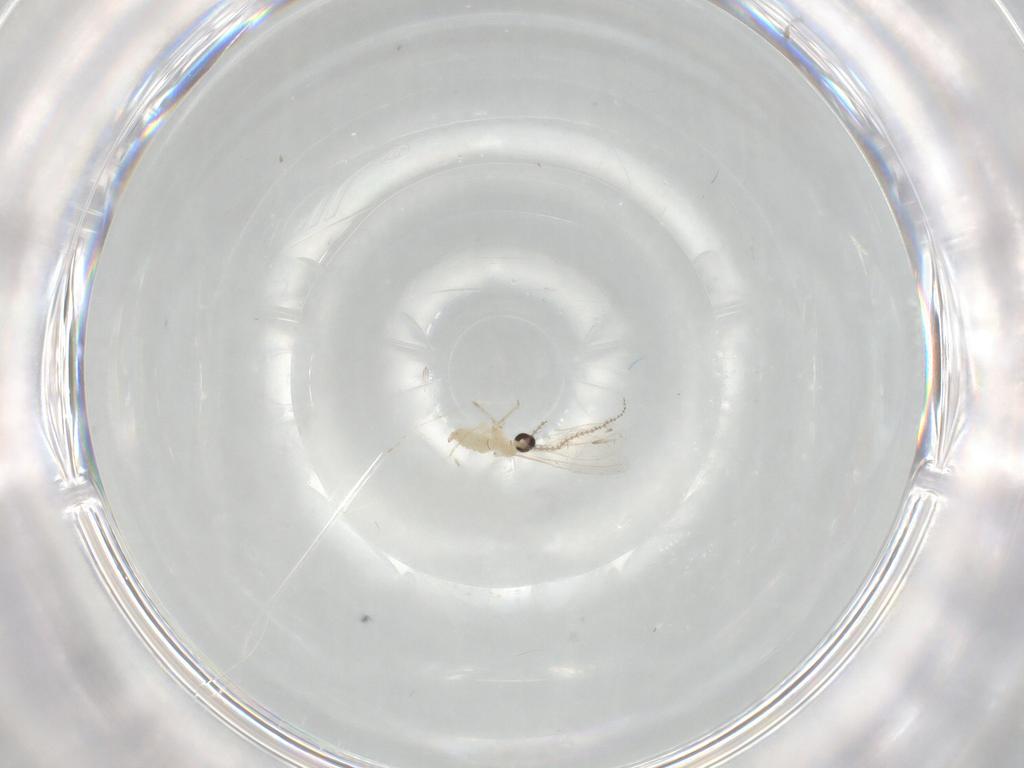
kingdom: Animalia
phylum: Arthropoda
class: Insecta
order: Diptera
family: Cecidomyiidae
